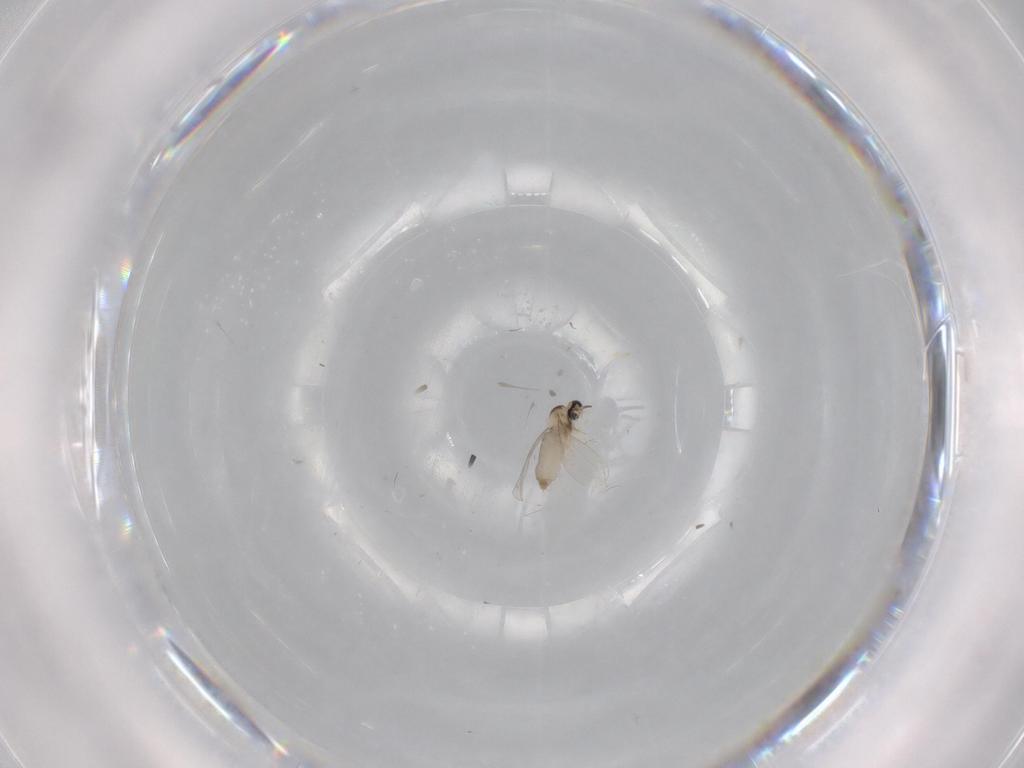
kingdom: Animalia
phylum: Arthropoda
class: Insecta
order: Diptera
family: Cecidomyiidae
